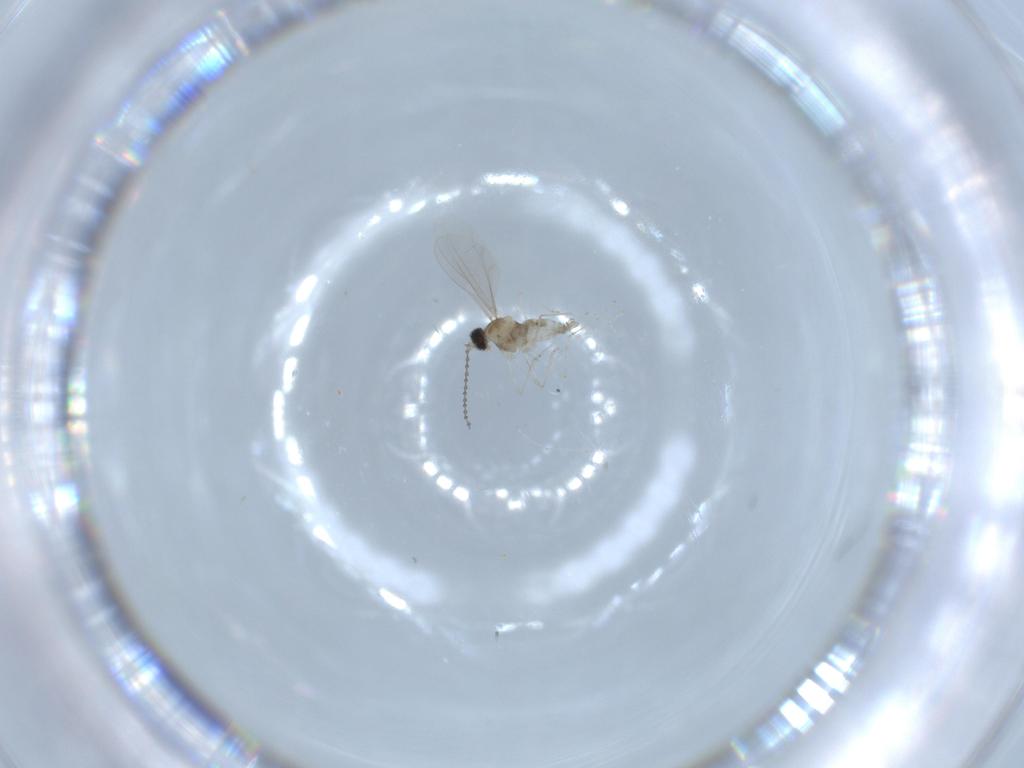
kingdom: Animalia
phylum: Arthropoda
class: Insecta
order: Diptera
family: Cecidomyiidae
